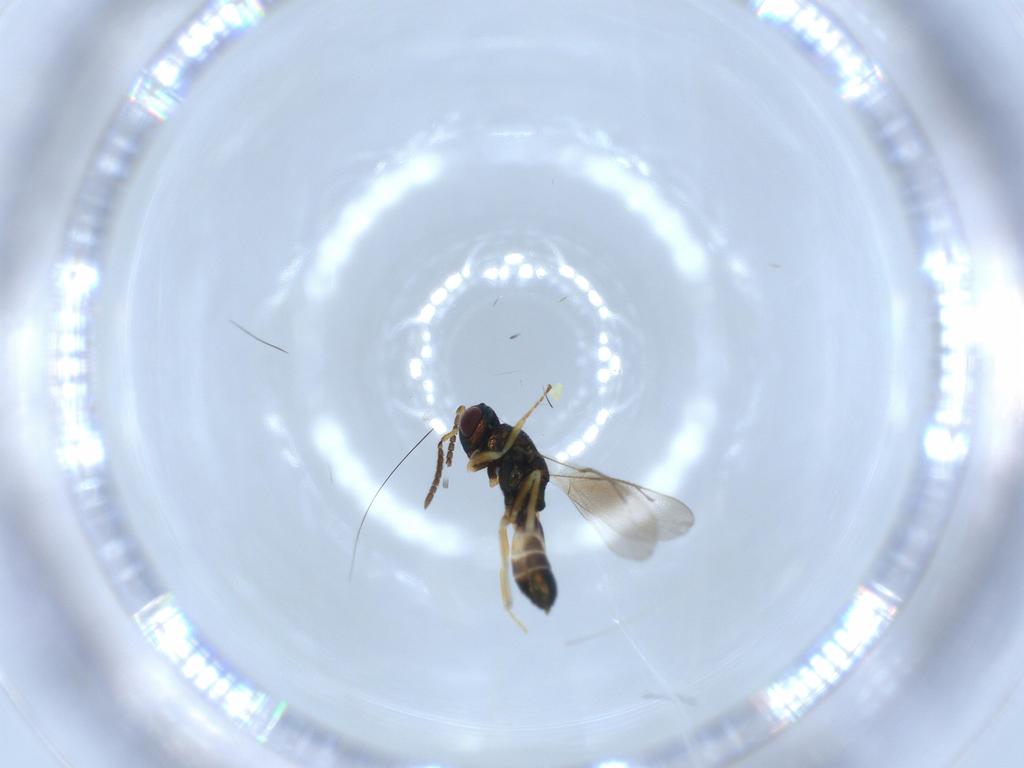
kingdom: Animalia
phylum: Arthropoda
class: Insecta
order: Hymenoptera
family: Pteromalidae
